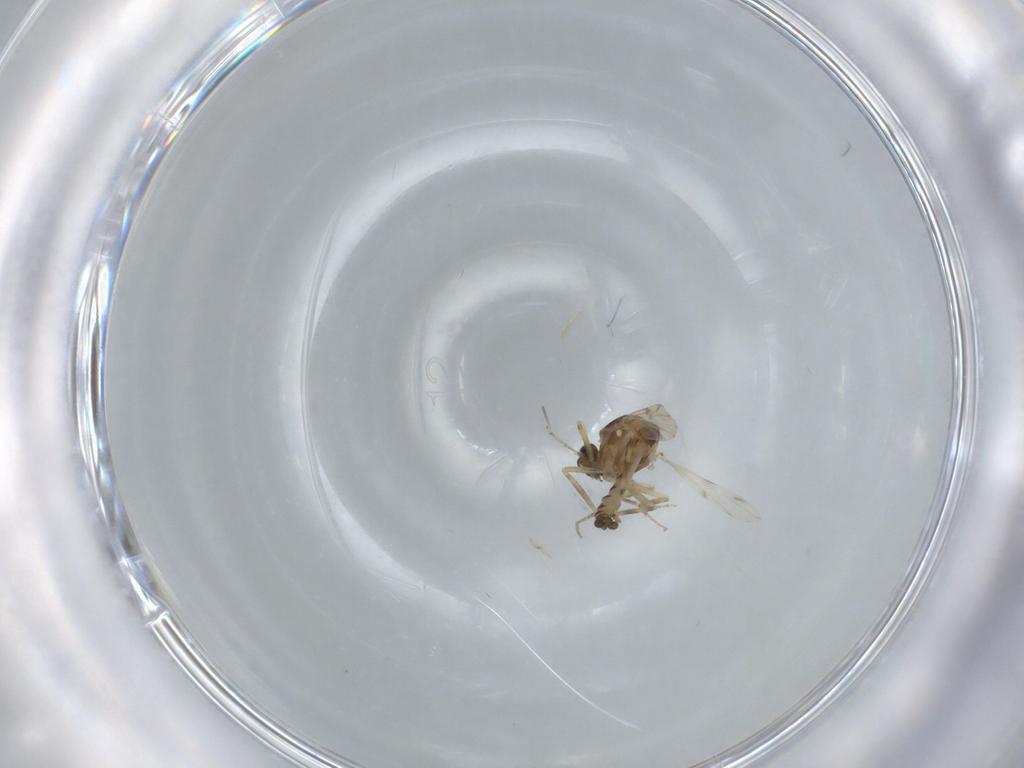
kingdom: Animalia
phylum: Arthropoda
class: Insecta
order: Diptera
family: Ceratopogonidae
